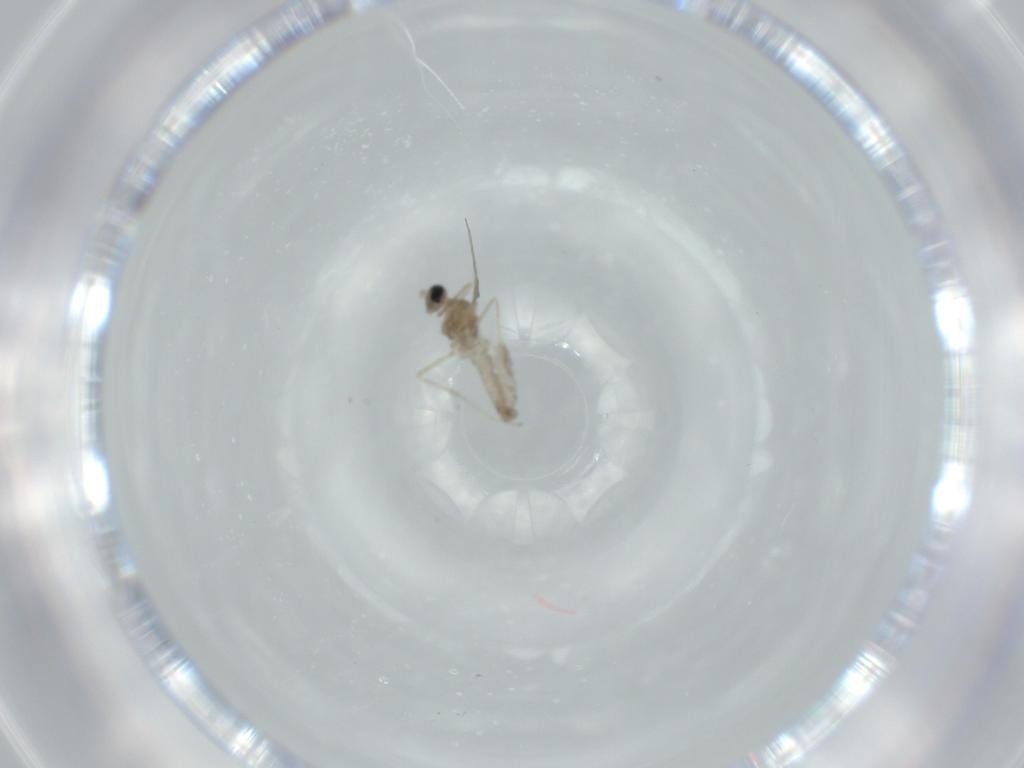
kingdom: Animalia
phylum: Arthropoda
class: Insecta
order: Diptera
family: Cecidomyiidae
